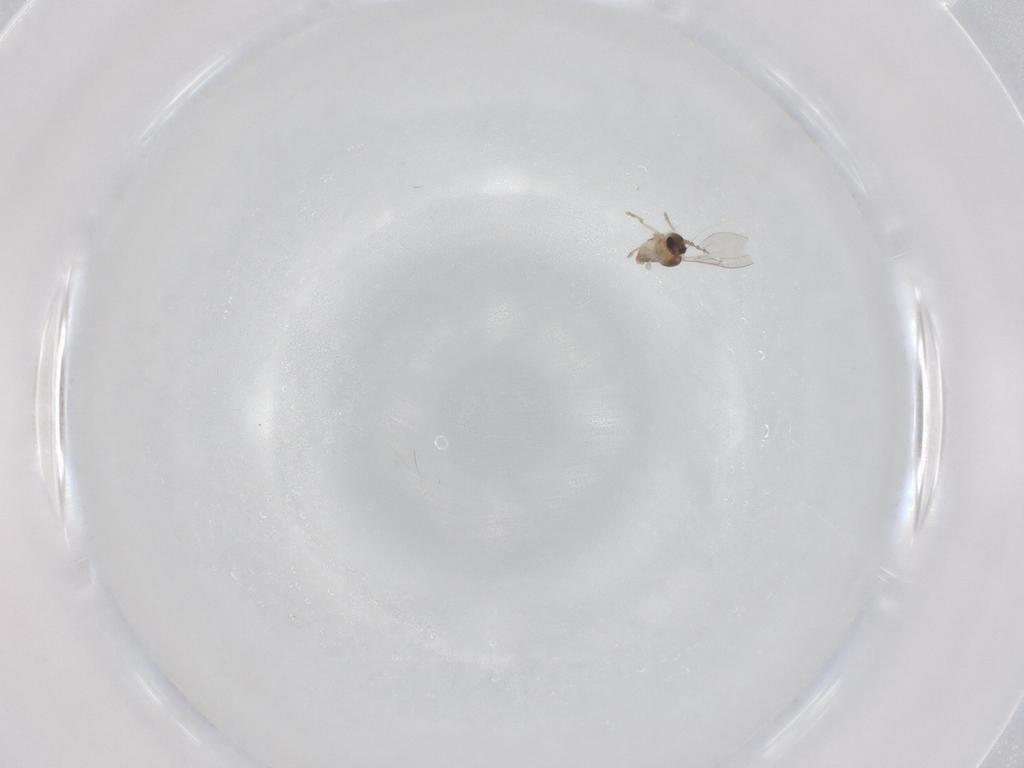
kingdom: Animalia
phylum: Arthropoda
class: Insecta
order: Diptera
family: Cecidomyiidae
